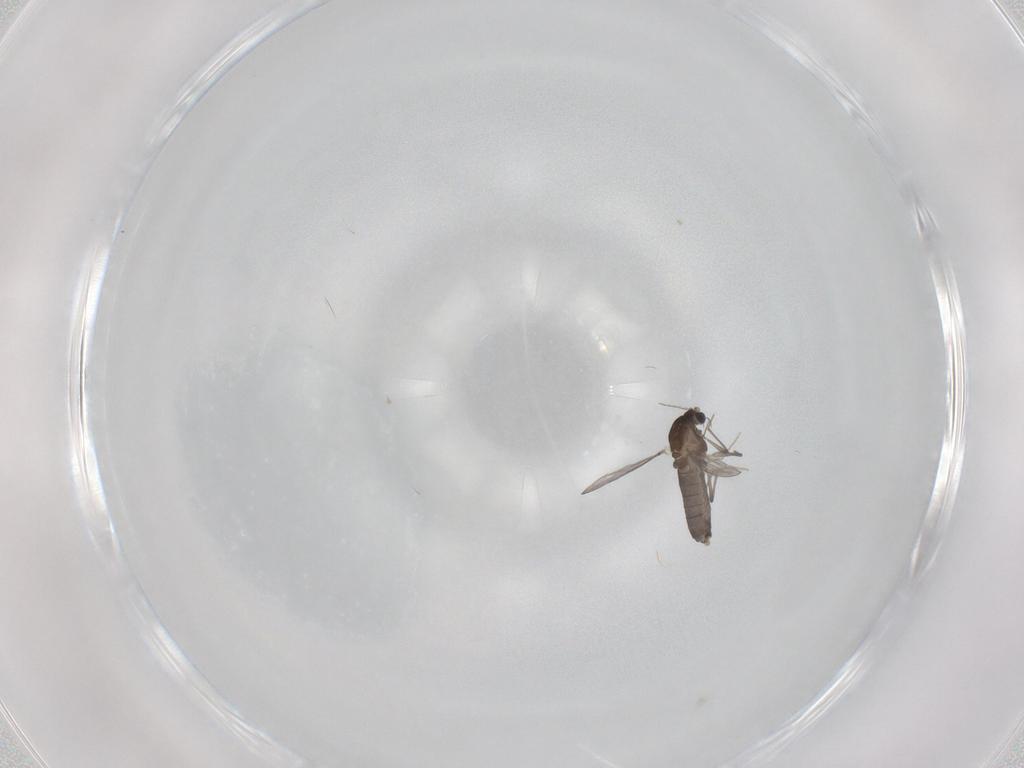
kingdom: Animalia
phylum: Arthropoda
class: Insecta
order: Diptera
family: Chironomidae
